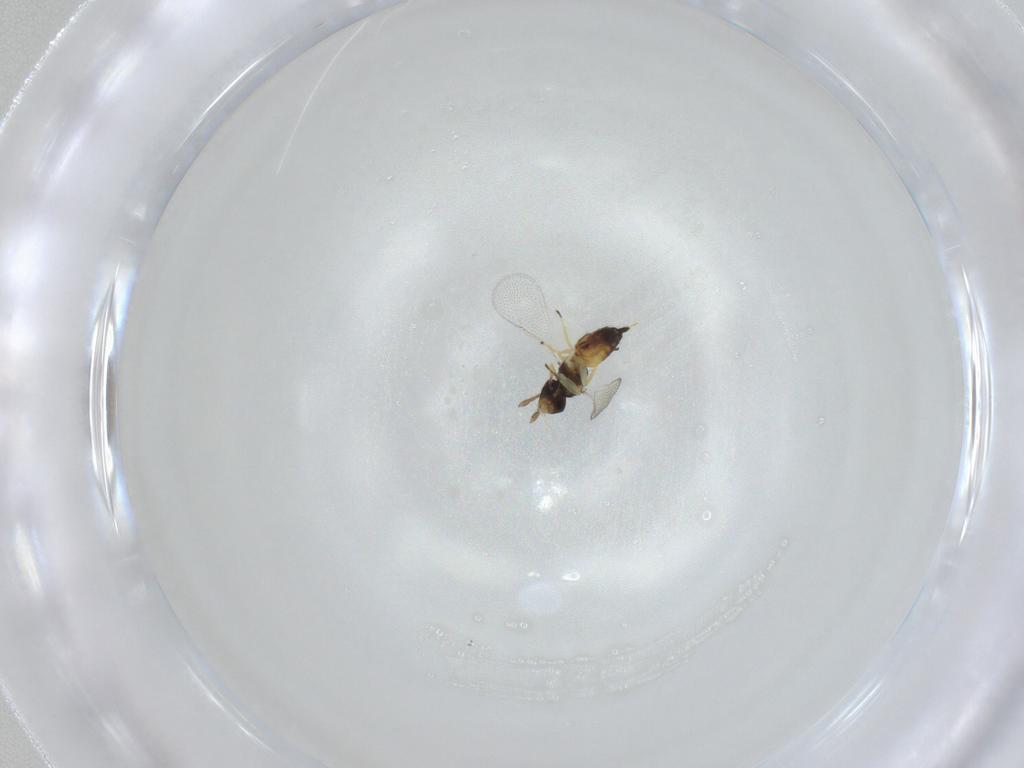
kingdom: Animalia
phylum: Arthropoda
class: Insecta
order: Hymenoptera
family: Eulophidae
